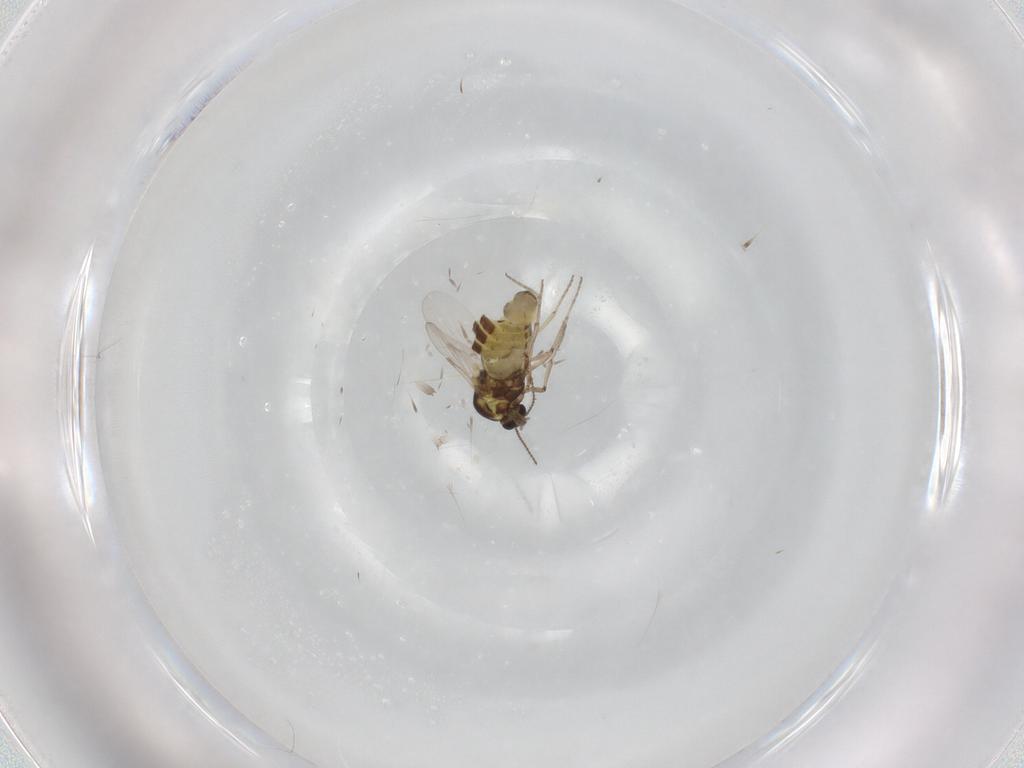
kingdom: Animalia
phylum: Arthropoda
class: Insecta
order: Diptera
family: Ceratopogonidae
